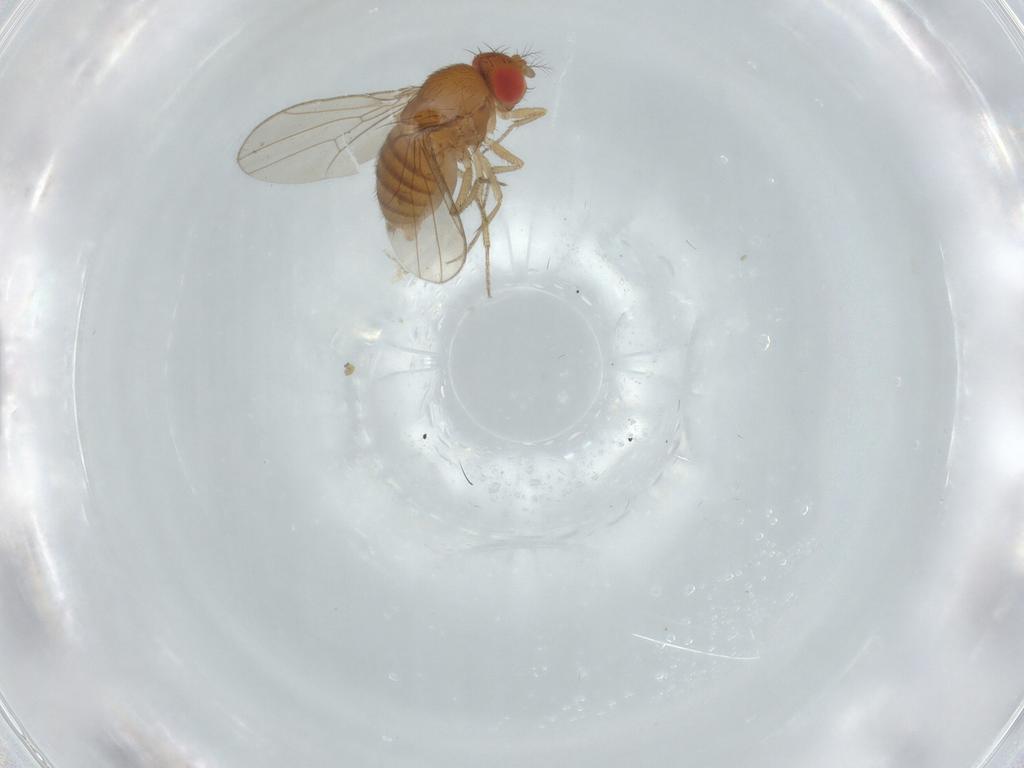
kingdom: Animalia
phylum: Arthropoda
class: Insecta
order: Diptera
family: Drosophilidae
